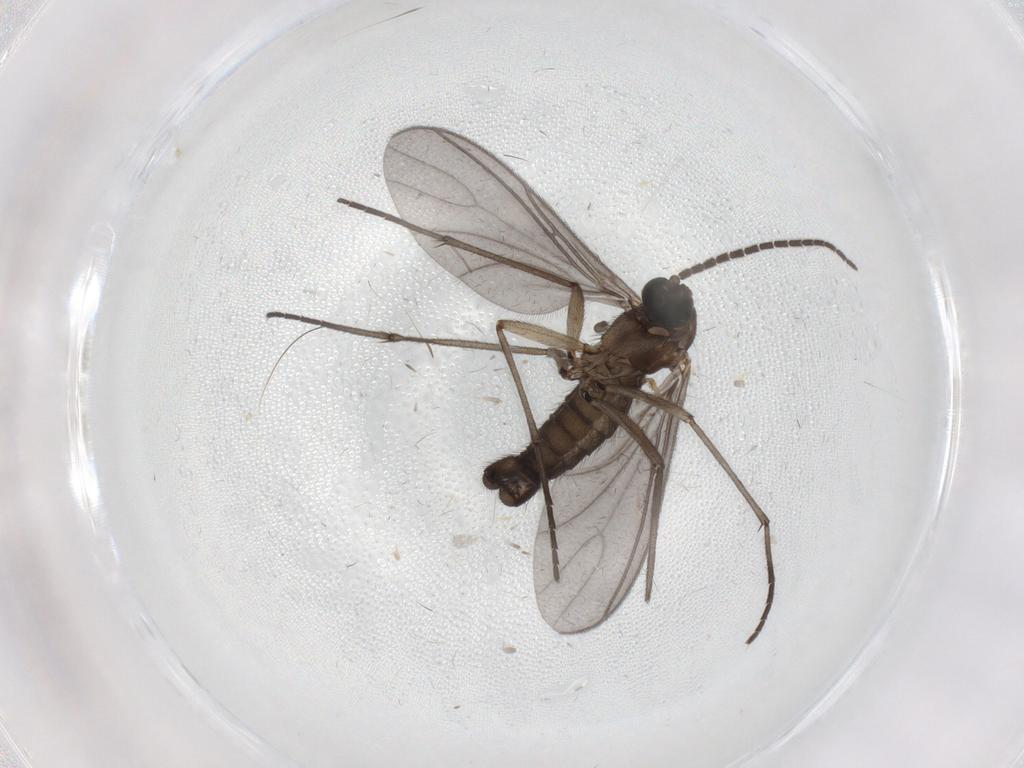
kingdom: Animalia
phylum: Arthropoda
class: Insecta
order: Diptera
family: Sciaridae
